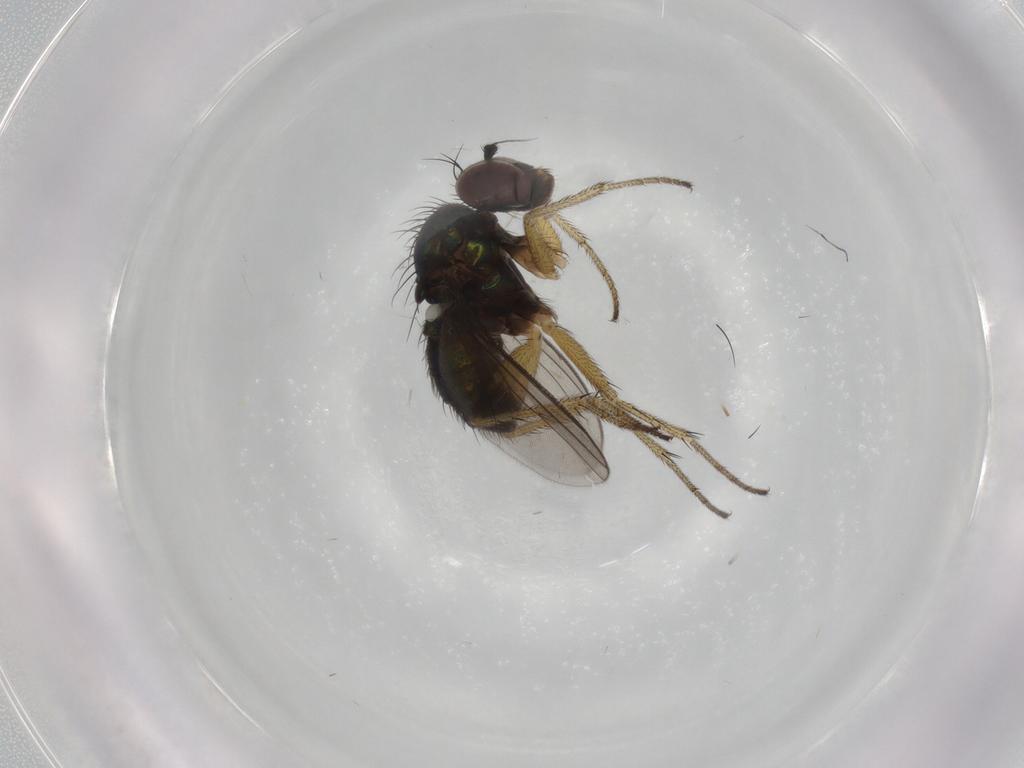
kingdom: Animalia
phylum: Arthropoda
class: Insecta
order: Diptera
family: Dolichopodidae
